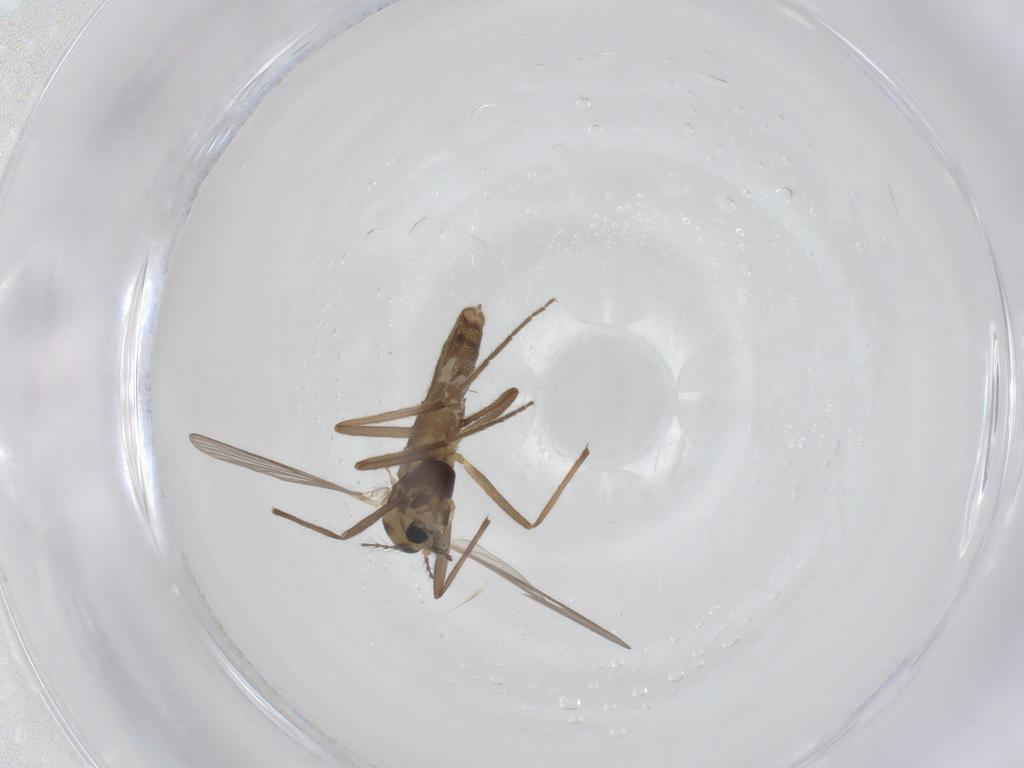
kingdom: Animalia
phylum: Arthropoda
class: Insecta
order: Diptera
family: Chironomidae
